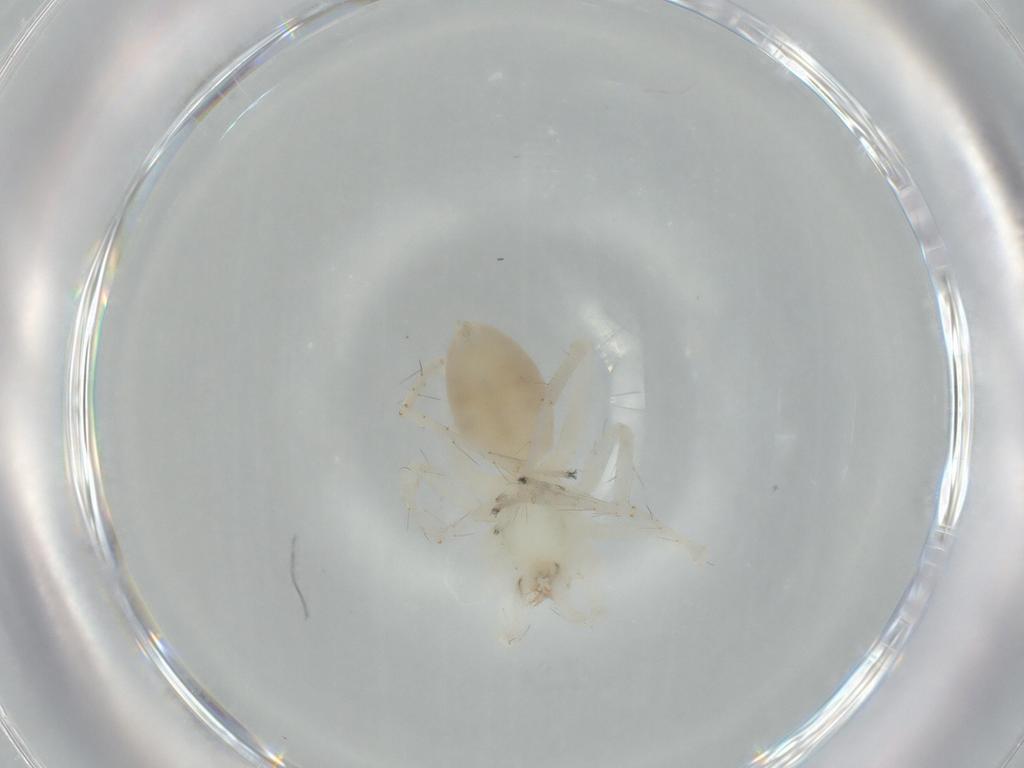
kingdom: Animalia
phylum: Arthropoda
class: Arachnida
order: Araneae
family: Anyphaenidae
